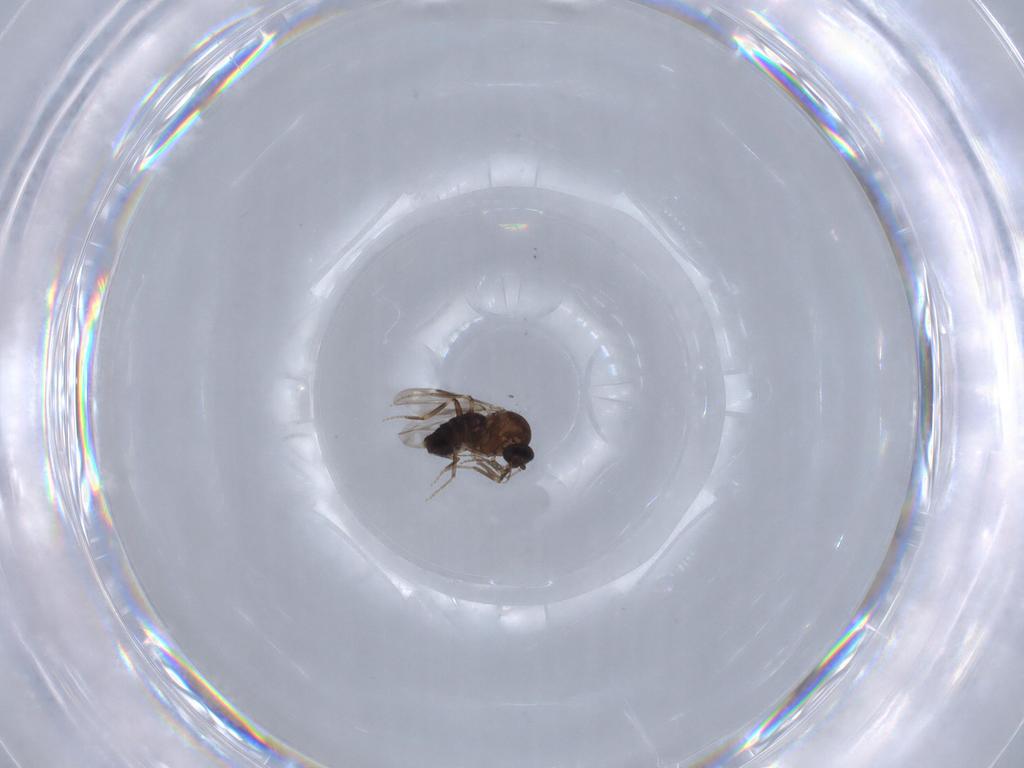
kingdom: Animalia
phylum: Arthropoda
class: Insecta
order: Diptera
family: Ceratopogonidae
